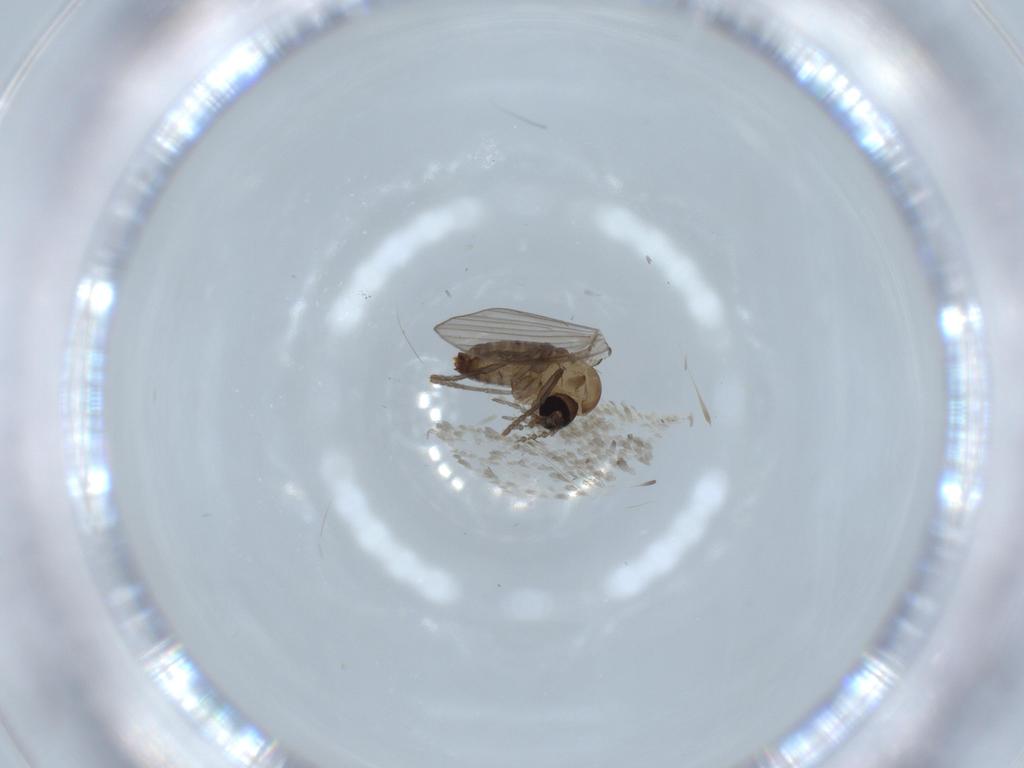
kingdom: Animalia
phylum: Arthropoda
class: Insecta
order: Diptera
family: Psychodidae
